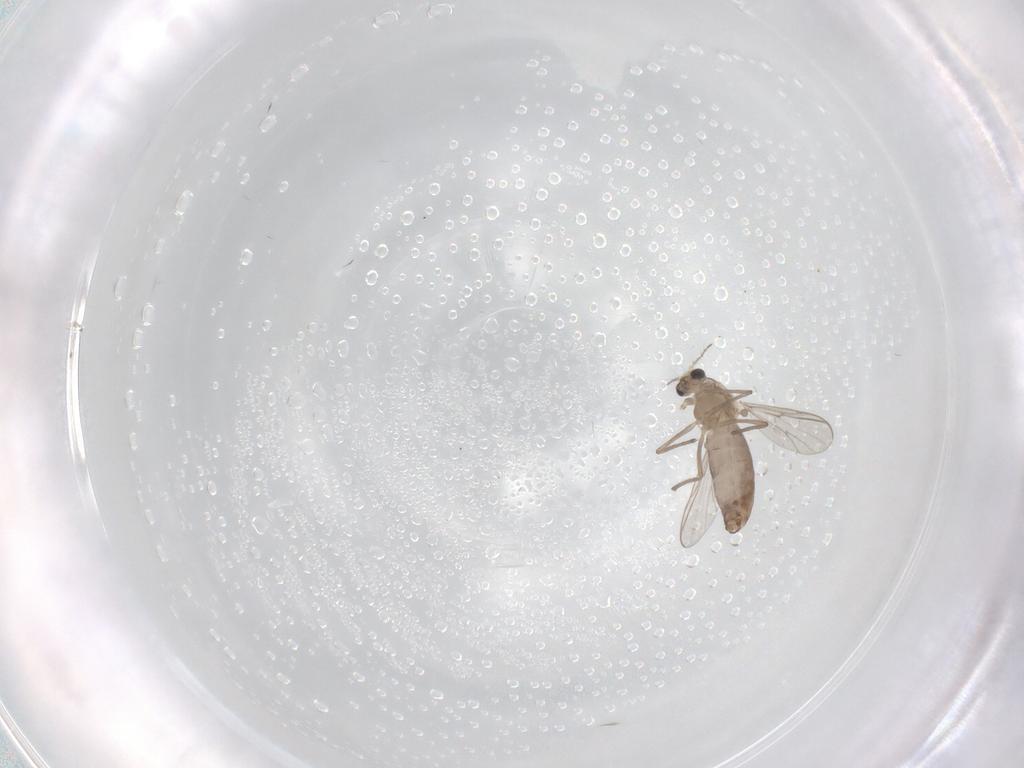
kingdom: Animalia
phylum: Arthropoda
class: Insecta
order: Diptera
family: Chironomidae
